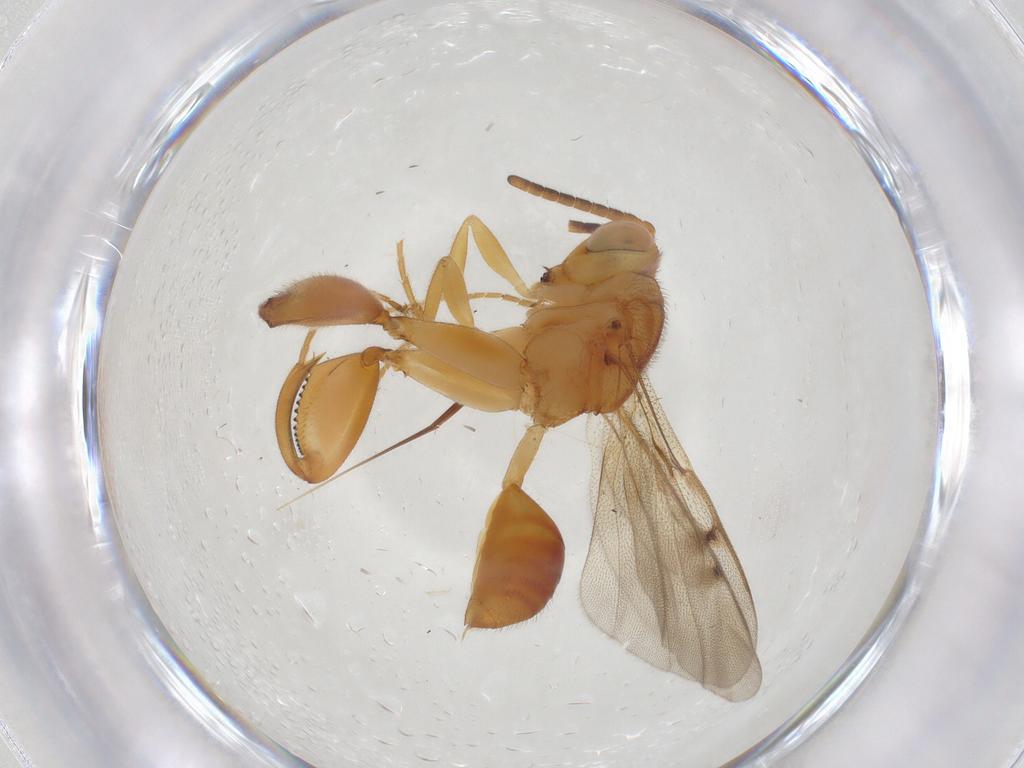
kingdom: Animalia
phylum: Arthropoda
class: Insecta
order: Hymenoptera
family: Chalcididae
